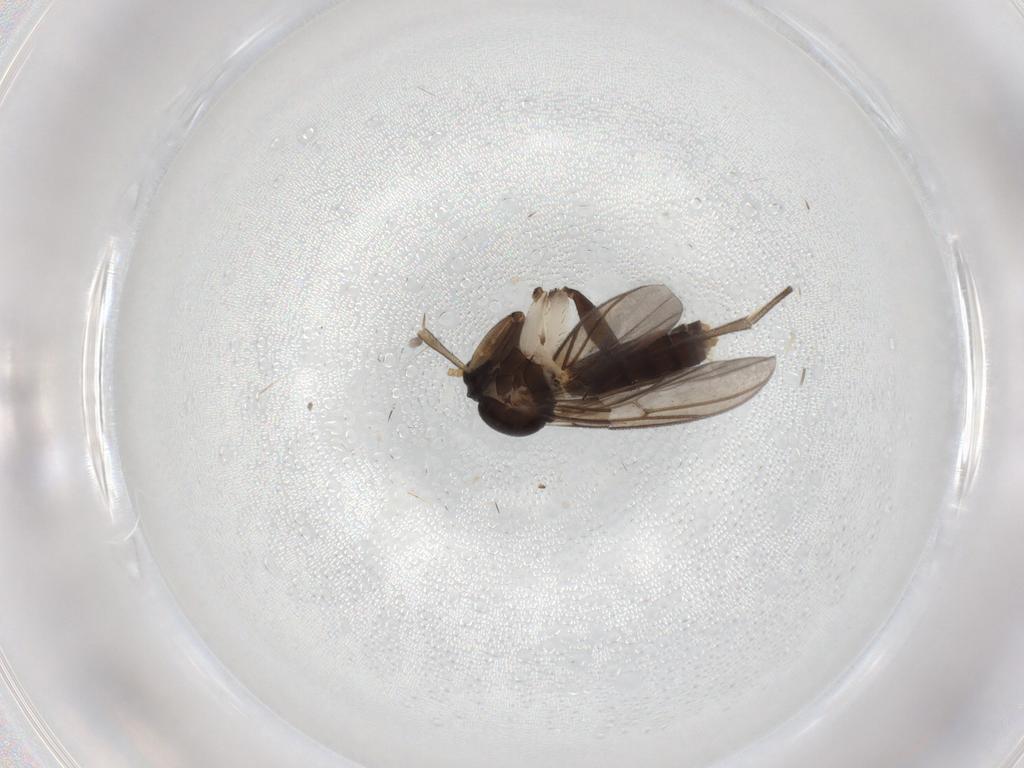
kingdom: Animalia
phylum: Arthropoda
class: Insecta
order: Diptera
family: Mycetophilidae
